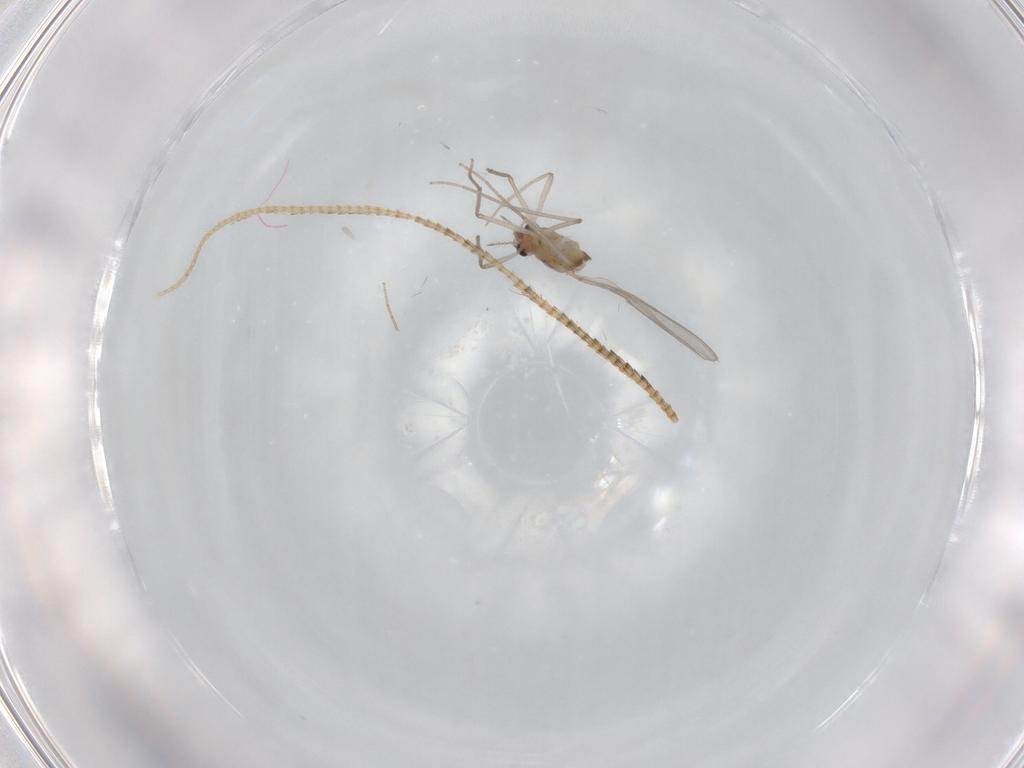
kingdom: Animalia
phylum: Arthropoda
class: Insecta
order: Diptera
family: Chironomidae
